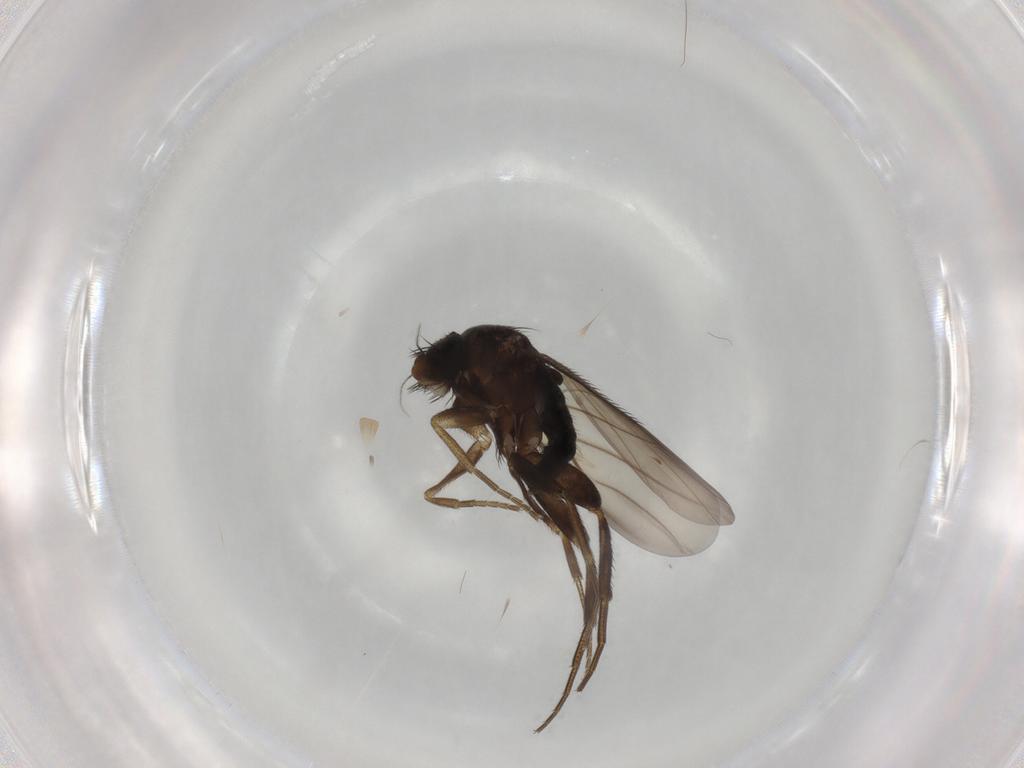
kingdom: Animalia
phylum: Arthropoda
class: Insecta
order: Diptera
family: Phoridae
